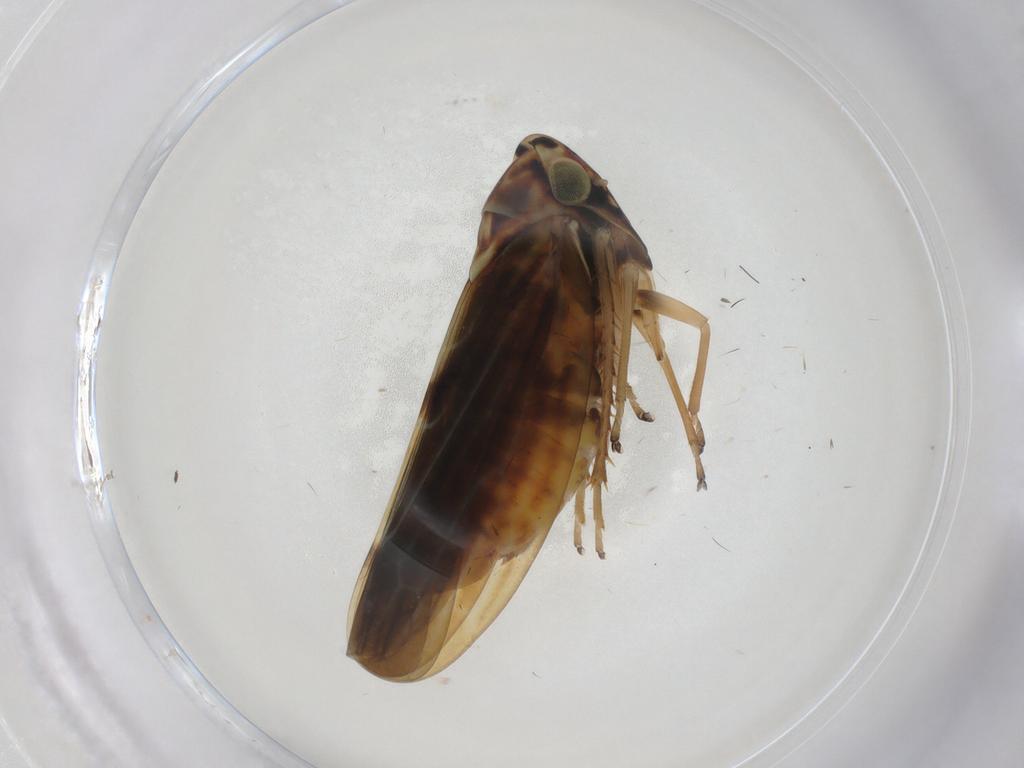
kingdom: Animalia
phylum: Arthropoda
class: Insecta
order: Hemiptera
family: Cicadellidae
